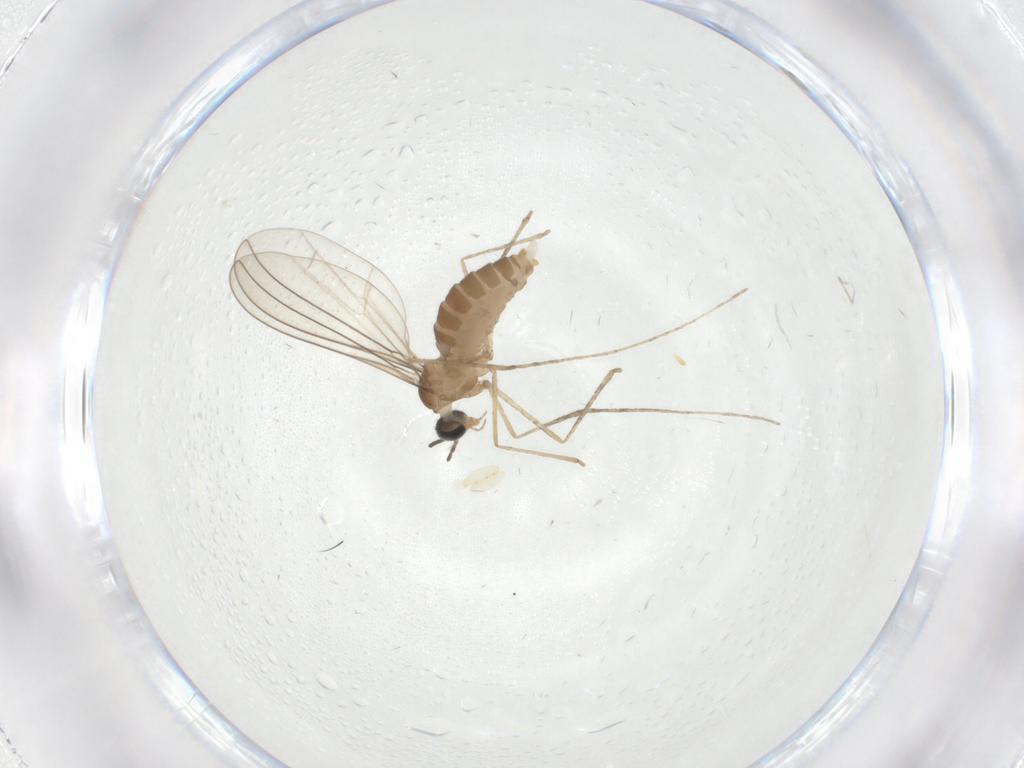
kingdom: Animalia
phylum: Arthropoda
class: Insecta
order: Diptera
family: Cecidomyiidae
